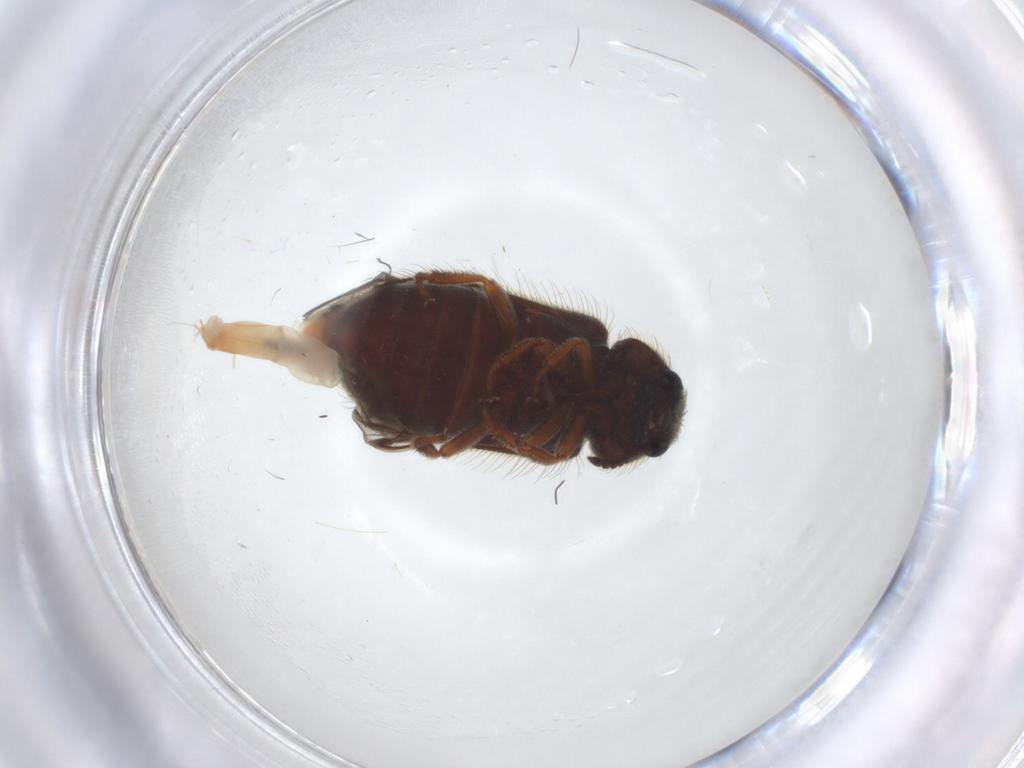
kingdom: Animalia
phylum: Arthropoda
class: Insecta
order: Coleoptera
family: Melyridae
